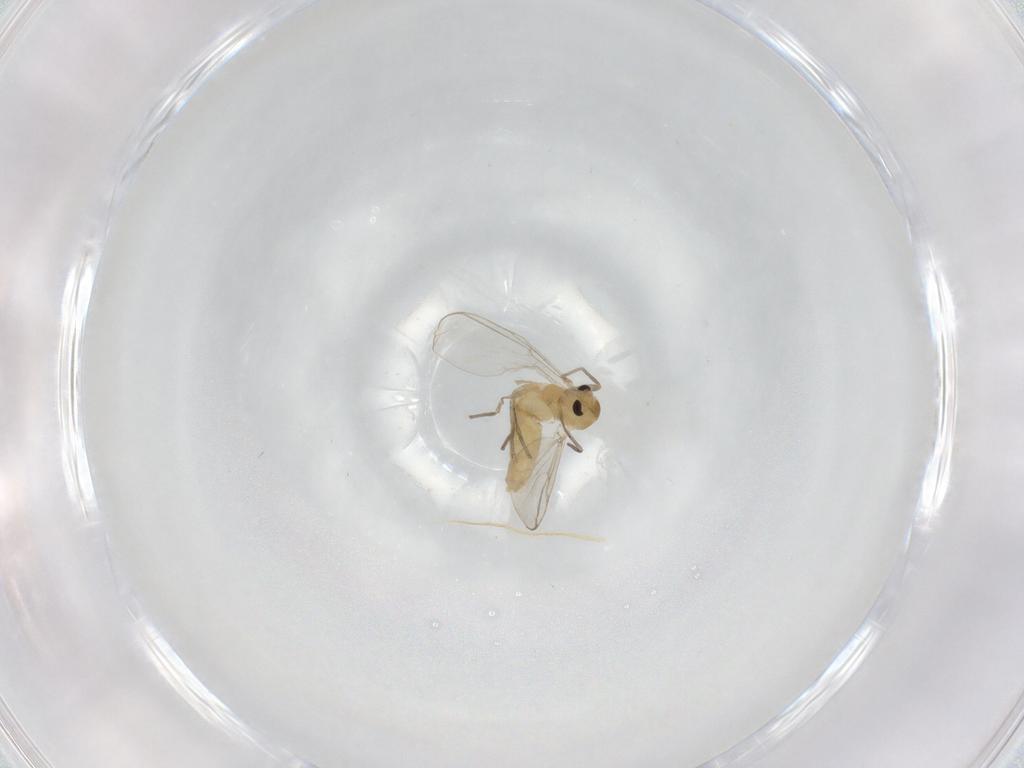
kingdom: Animalia
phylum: Arthropoda
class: Insecta
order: Diptera
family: Chironomidae
